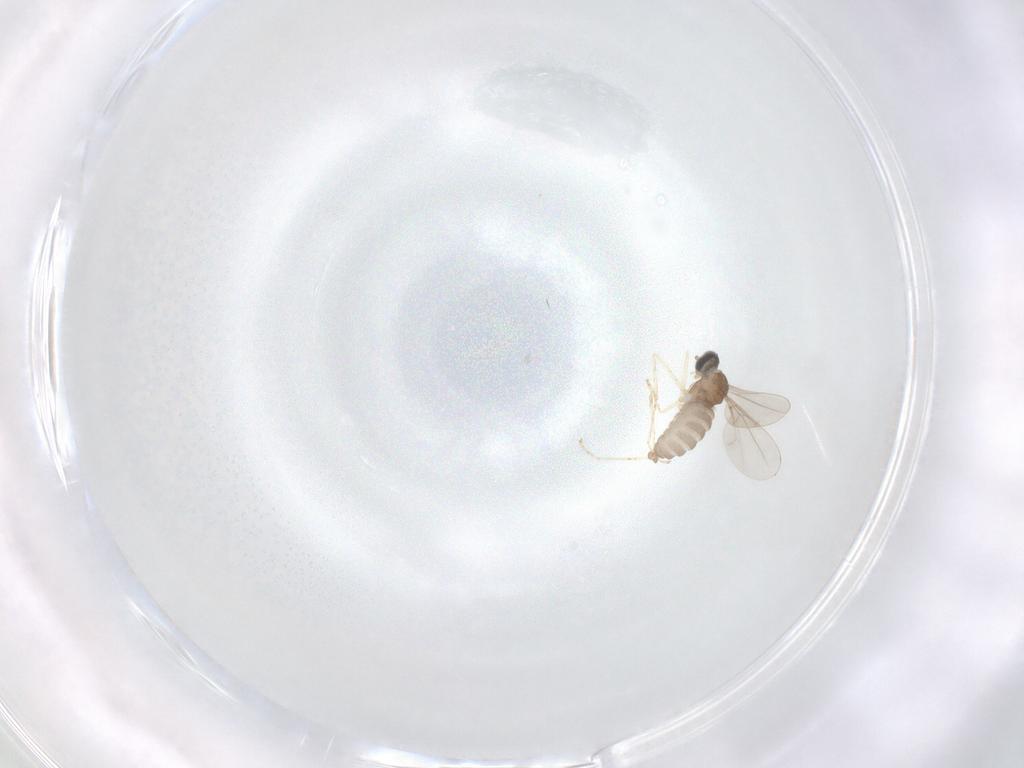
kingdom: Animalia
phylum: Arthropoda
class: Insecta
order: Diptera
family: Cecidomyiidae
